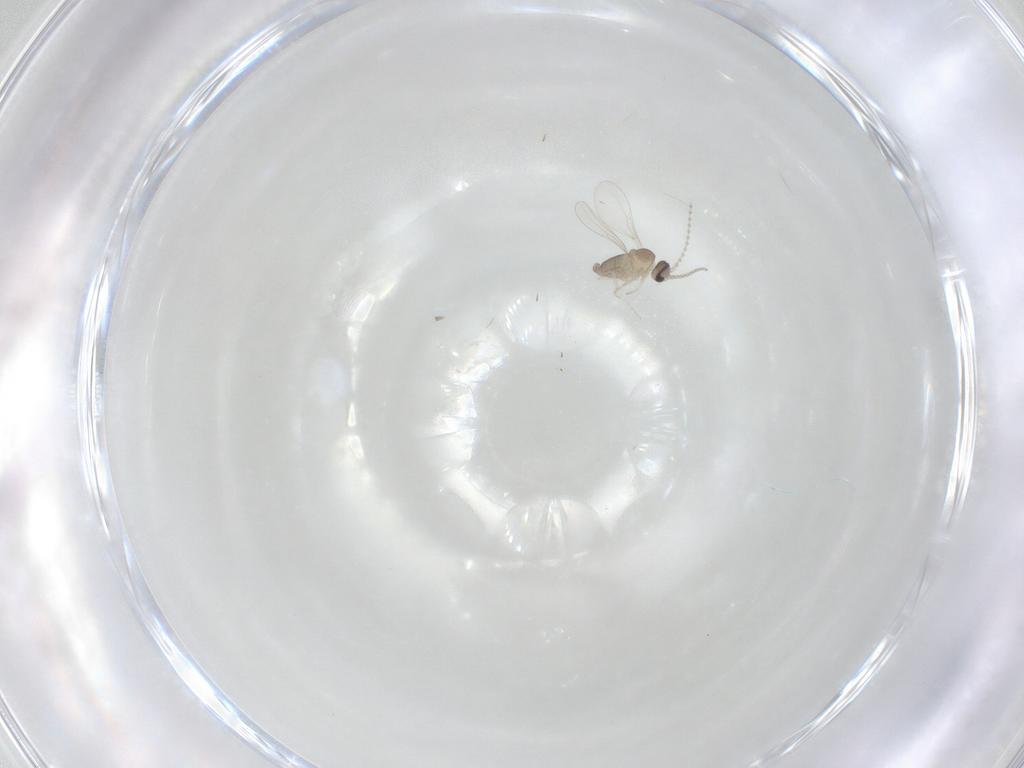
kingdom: Animalia
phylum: Arthropoda
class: Insecta
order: Diptera
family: Cecidomyiidae
